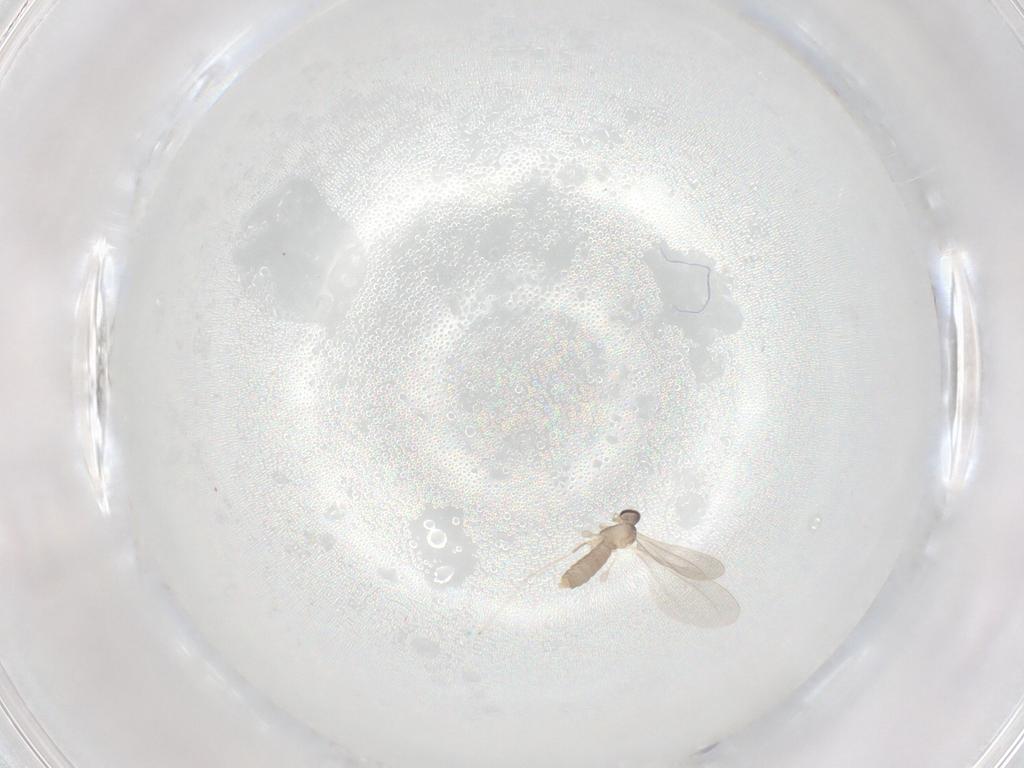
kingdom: Animalia
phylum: Arthropoda
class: Insecta
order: Diptera
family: Cecidomyiidae
